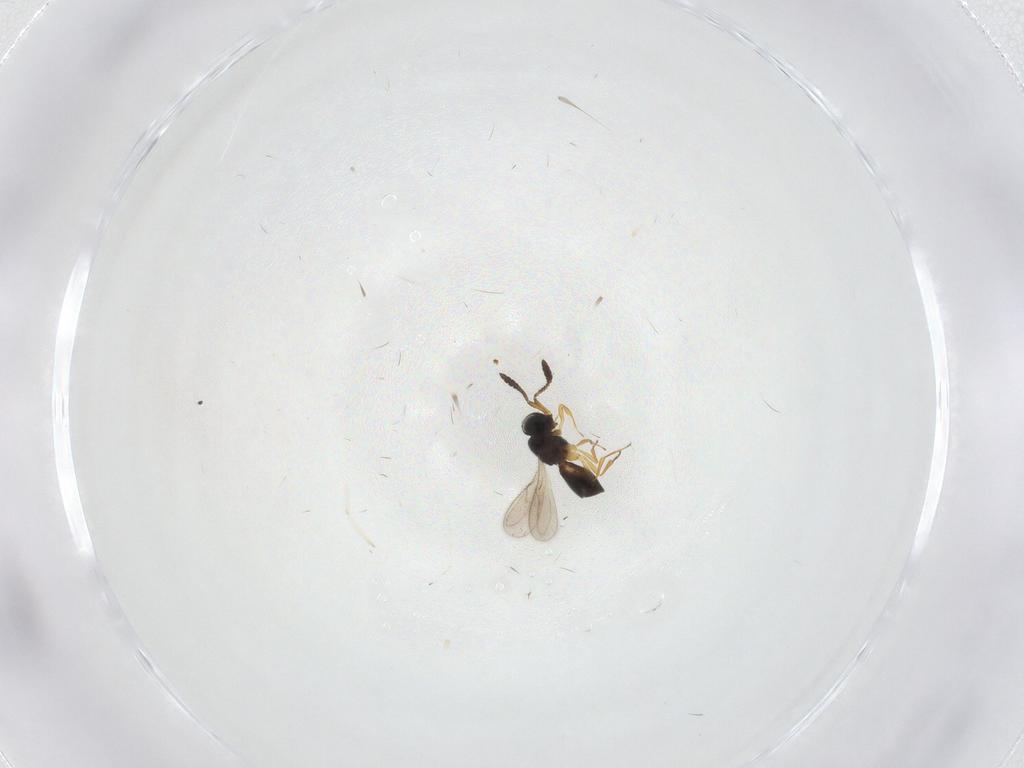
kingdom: Animalia
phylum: Arthropoda
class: Insecta
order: Hymenoptera
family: Scelionidae
